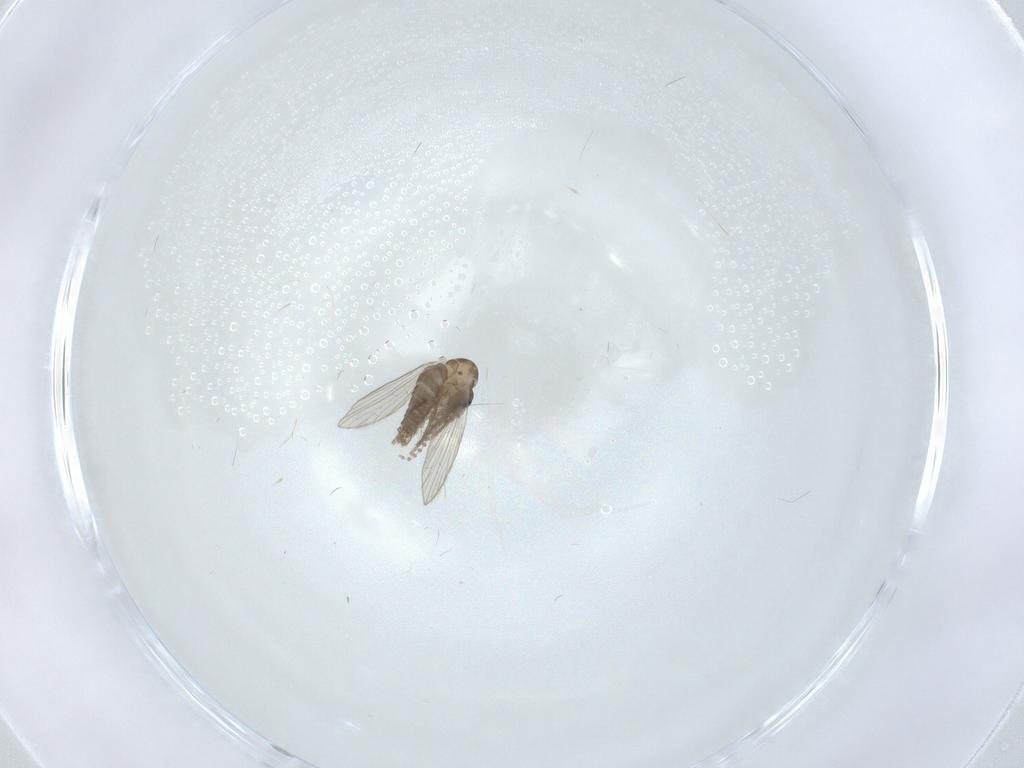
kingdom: Animalia
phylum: Arthropoda
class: Insecta
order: Diptera
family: Psychodidae
